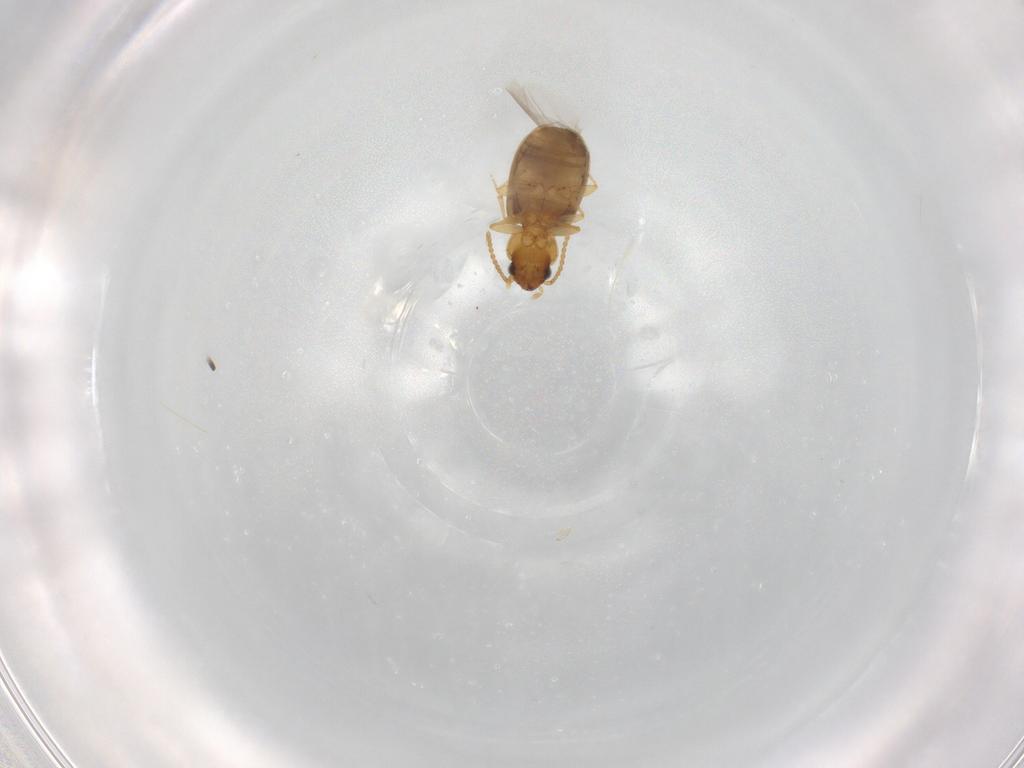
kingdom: Animalia
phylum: Arthropoda
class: Insecta
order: Coleoptera
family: Carabidae
